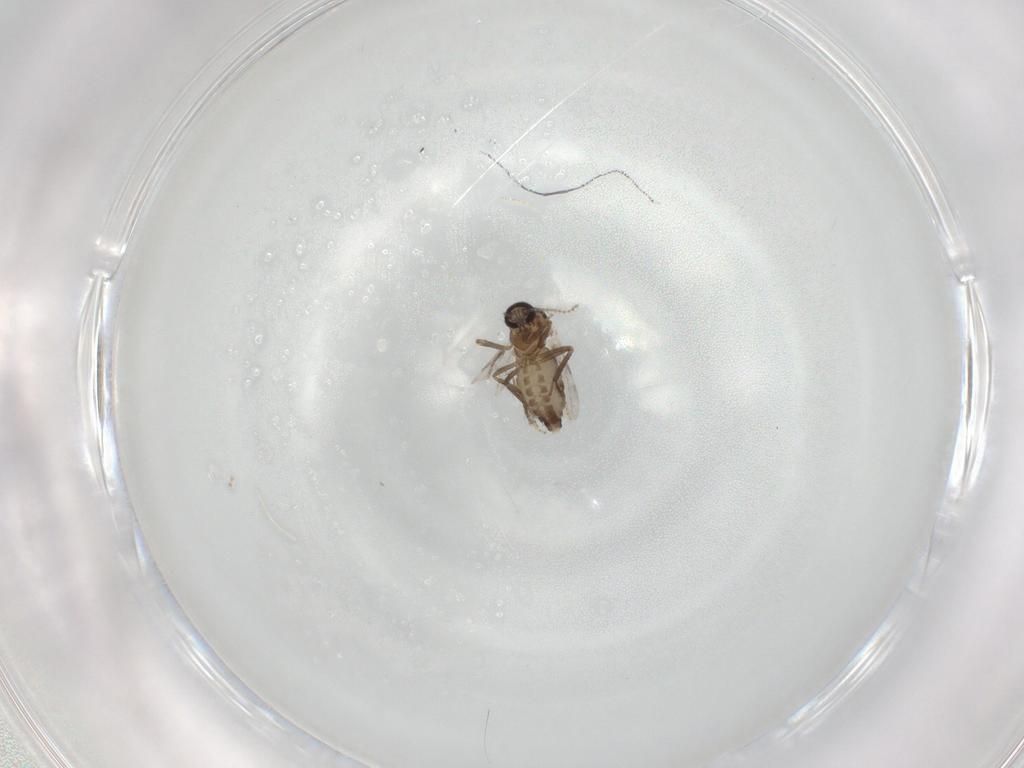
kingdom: Animalia
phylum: Arthropoda
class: Insecta
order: Diptera
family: Ceratopogonidae
